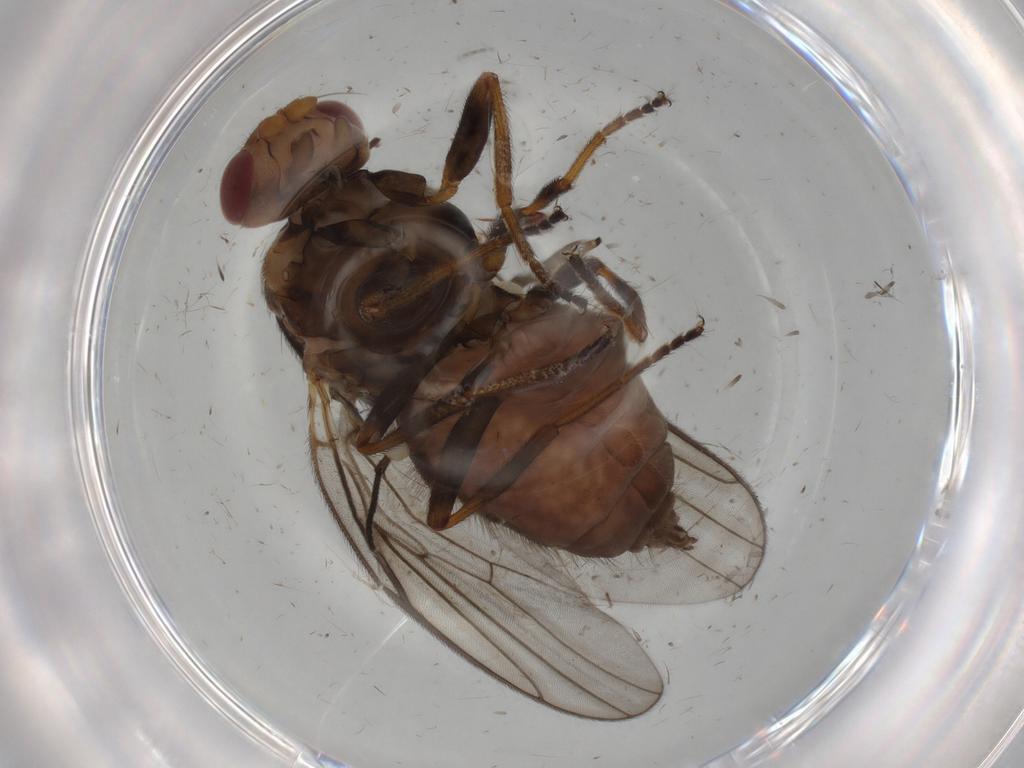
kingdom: Animalia
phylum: Arthropoda
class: Insecta
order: Diptera
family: Chloropidae
